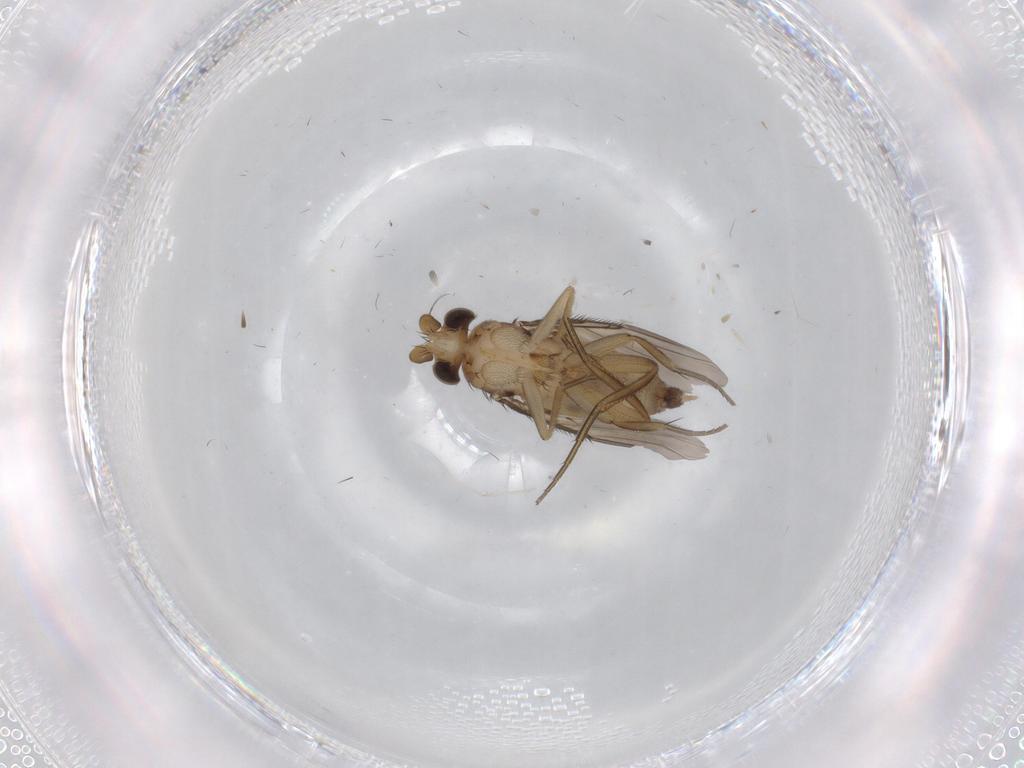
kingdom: Animalia
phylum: Arthropoda
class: Insecta
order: Diptera
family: Phoridae
